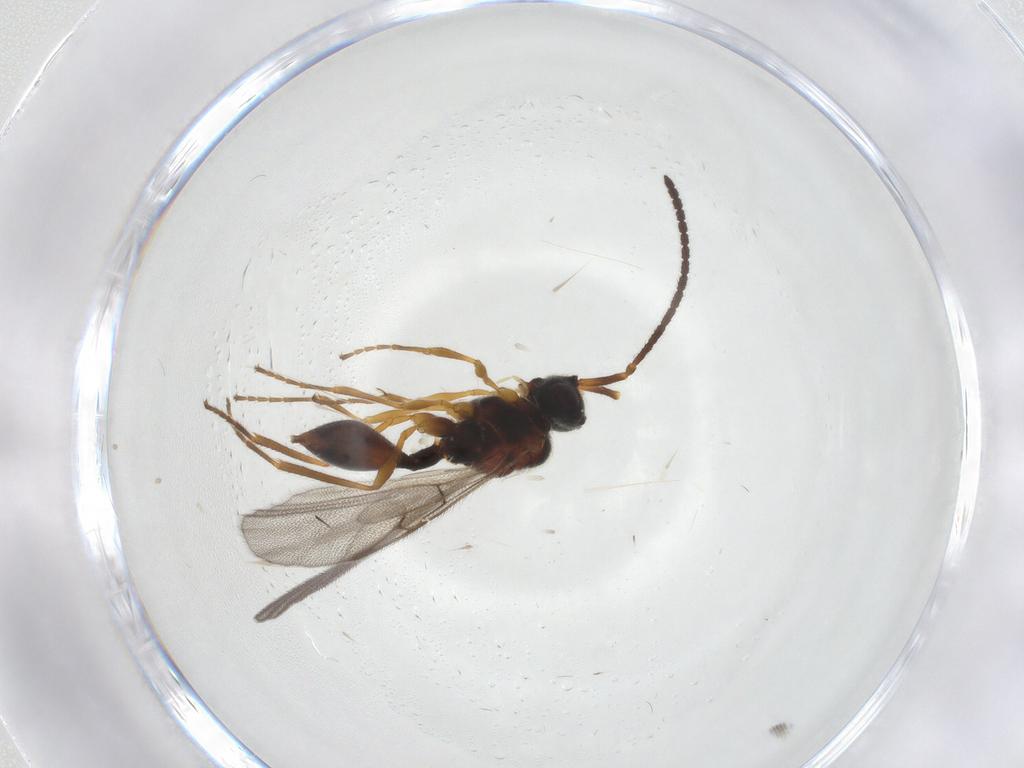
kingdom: Animalia
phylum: Arthropoda
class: Insecta
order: Hymenoptera
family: Diapriidae
